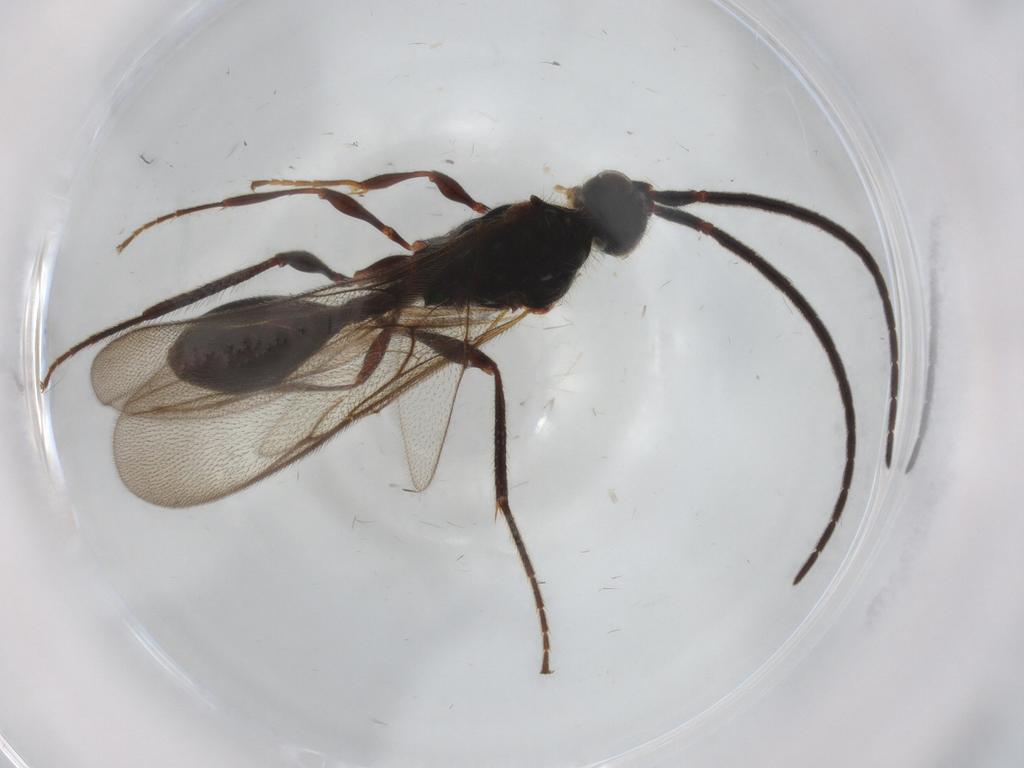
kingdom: Animalia
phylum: Arthropoda
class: Insecta
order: Hymenoptera
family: Diapriidae
